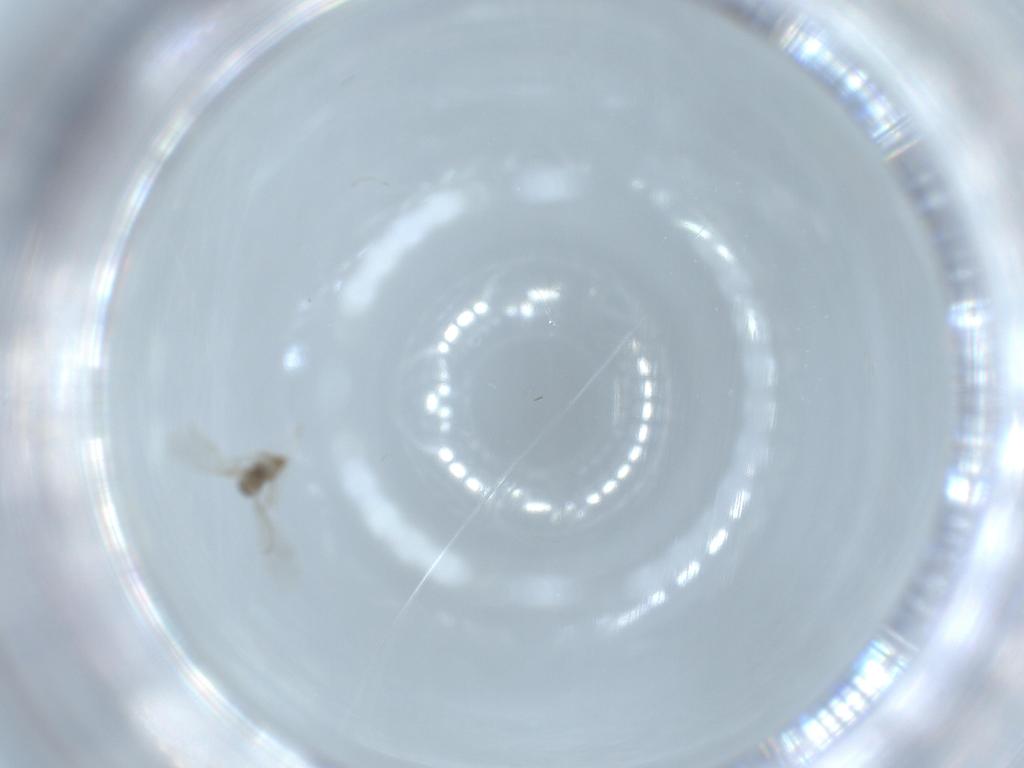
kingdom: Animalia
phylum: Arthropoda
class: Insecta
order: Diptera
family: Cecidomyiidae
